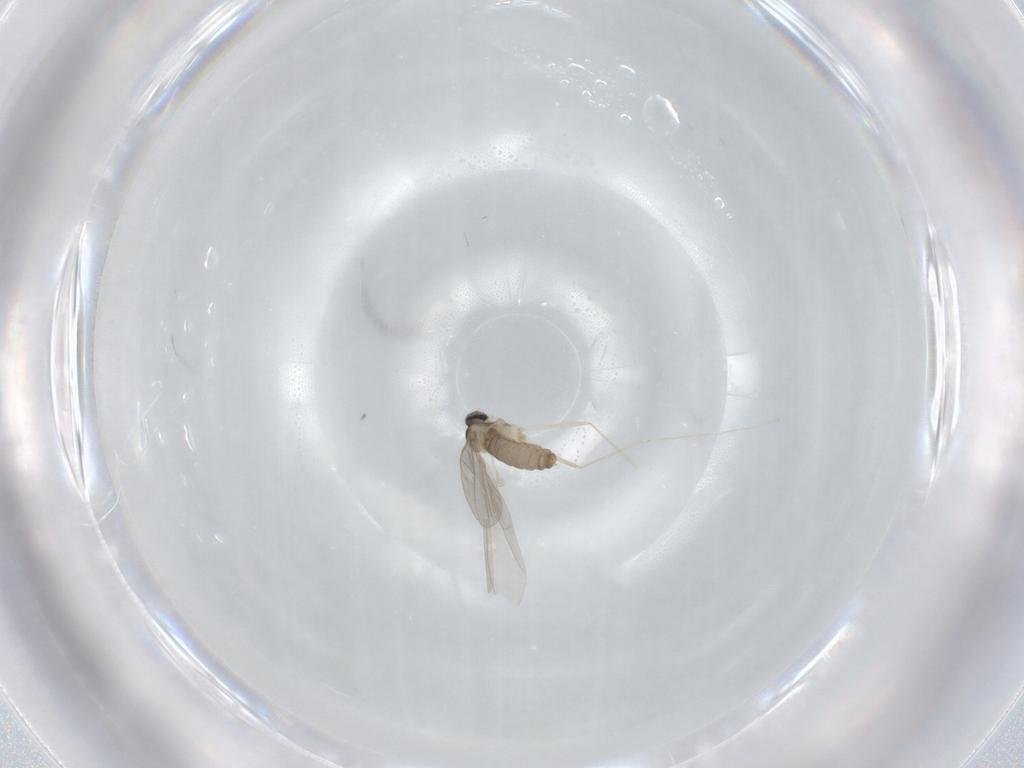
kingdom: Animalia
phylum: Arthropoda
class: Insecta
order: Diptera
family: Cecidomyiidae
